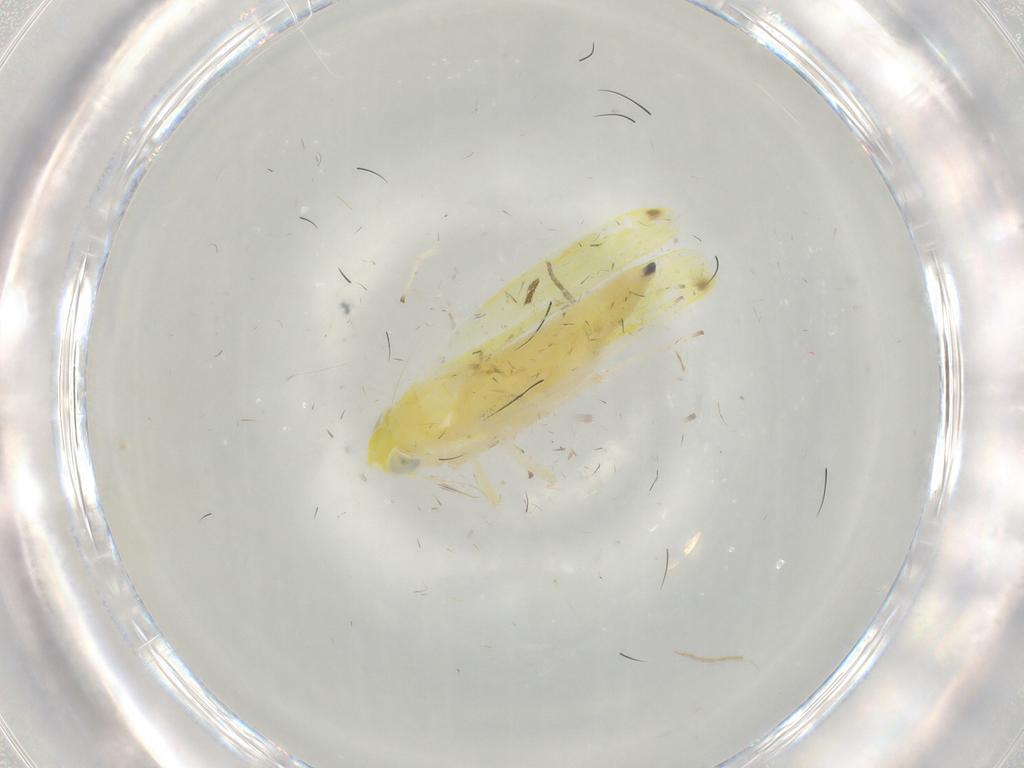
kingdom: Animalia
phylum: Arthropoda
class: Insecta
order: Hemiptera
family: Cicadellidae
